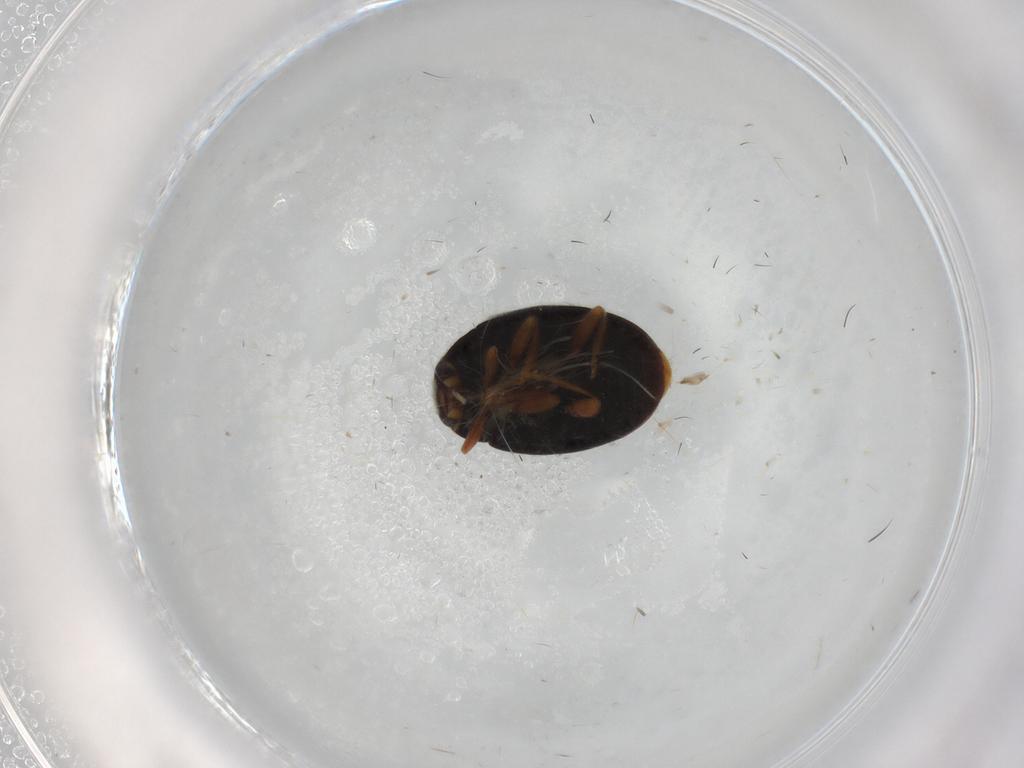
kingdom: Animalia
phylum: Arthropoda
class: Insecta
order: Coleoptera
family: Coccinellidae
